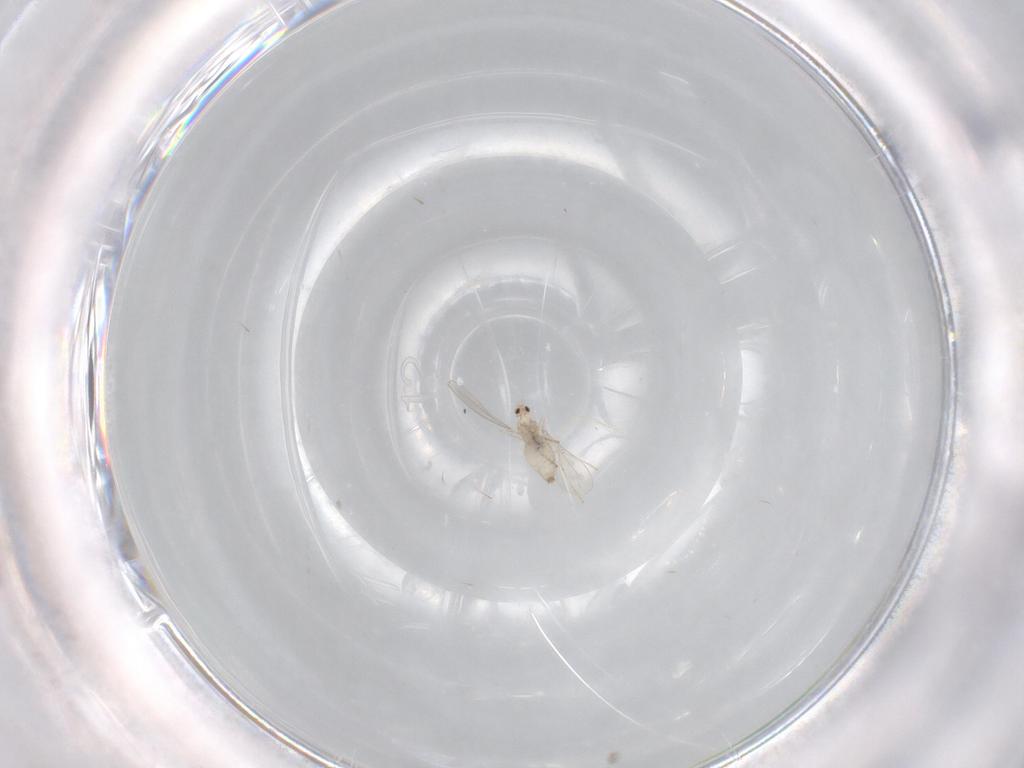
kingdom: Animalia
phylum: Arthropoda
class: Insecta
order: Diptera
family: Cecidomyiidae
